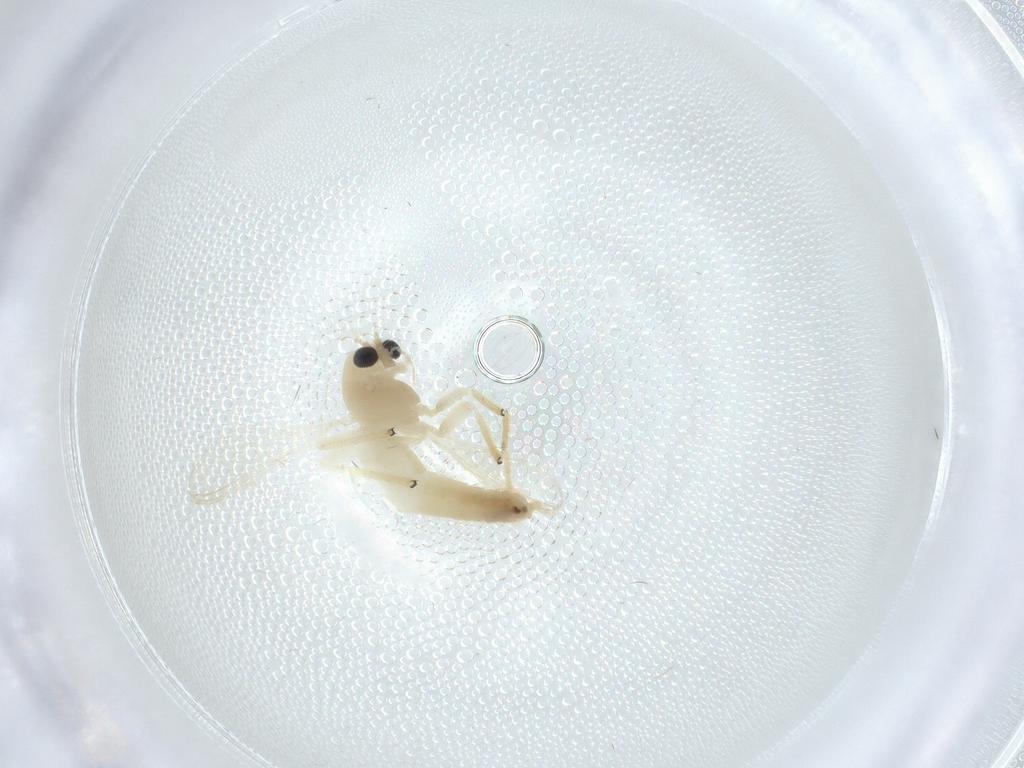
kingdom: Animalia
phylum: Arthropoda
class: Insecta
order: Diptera
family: Chironomidae
